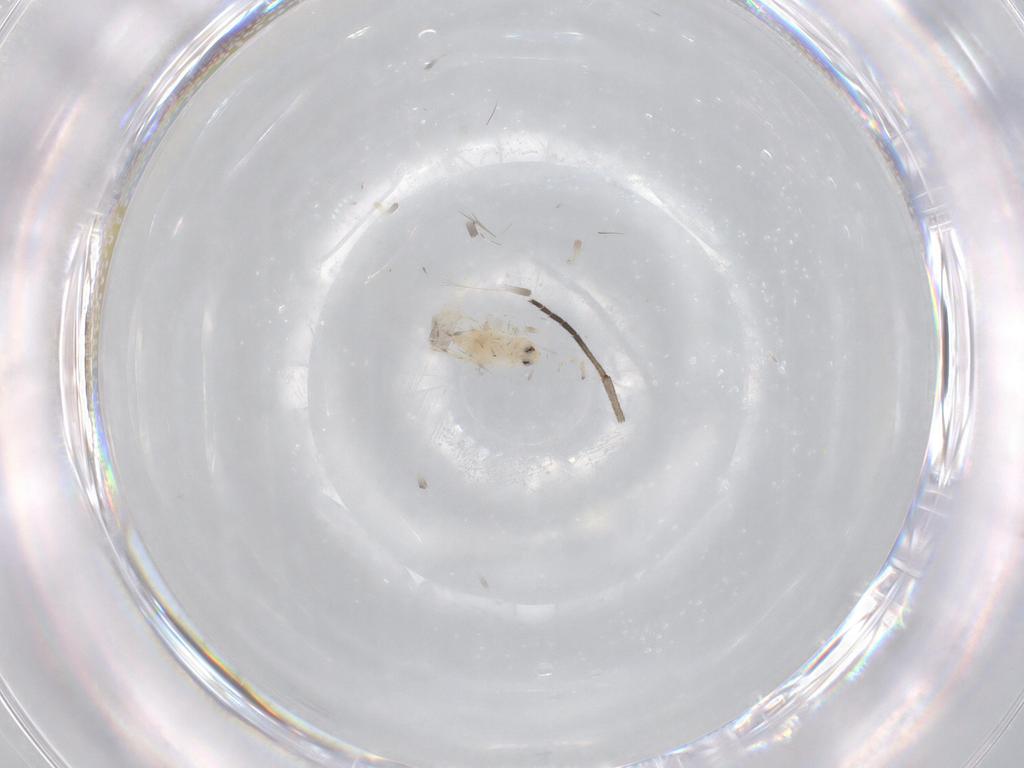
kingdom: Animalia
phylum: Arthropoda
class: Insecta
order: Hemiptera
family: Aleyrodidae
